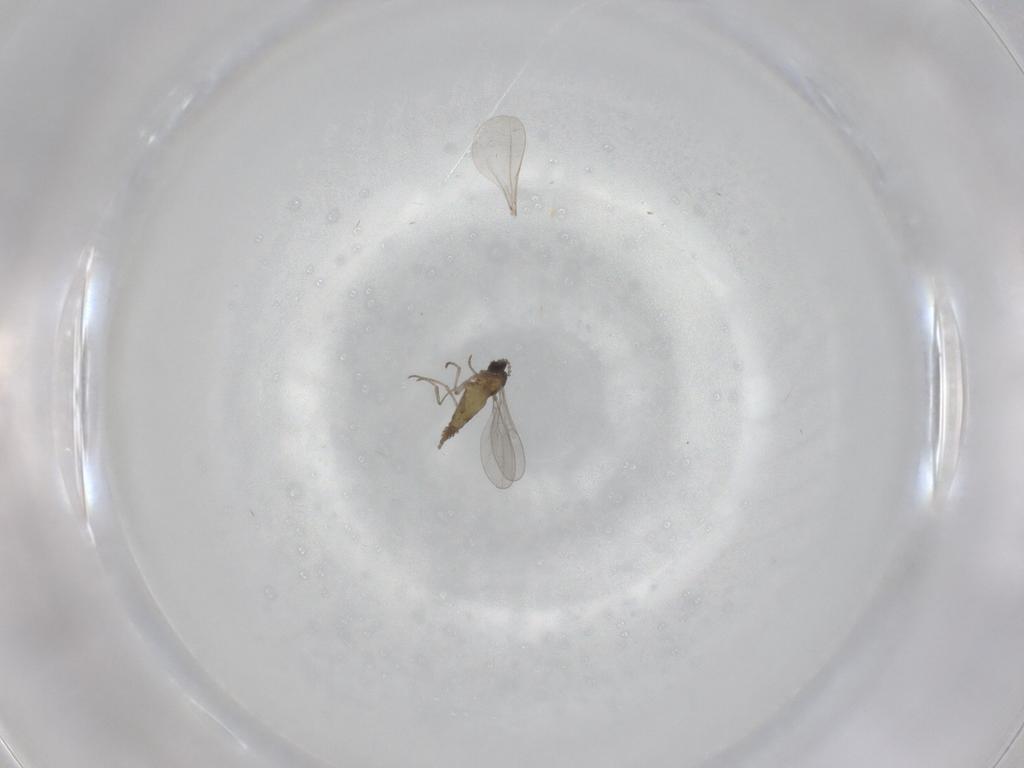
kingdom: Animalia
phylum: Arthropoda
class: Insecta
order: Diptera
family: Cecidomyiidae
